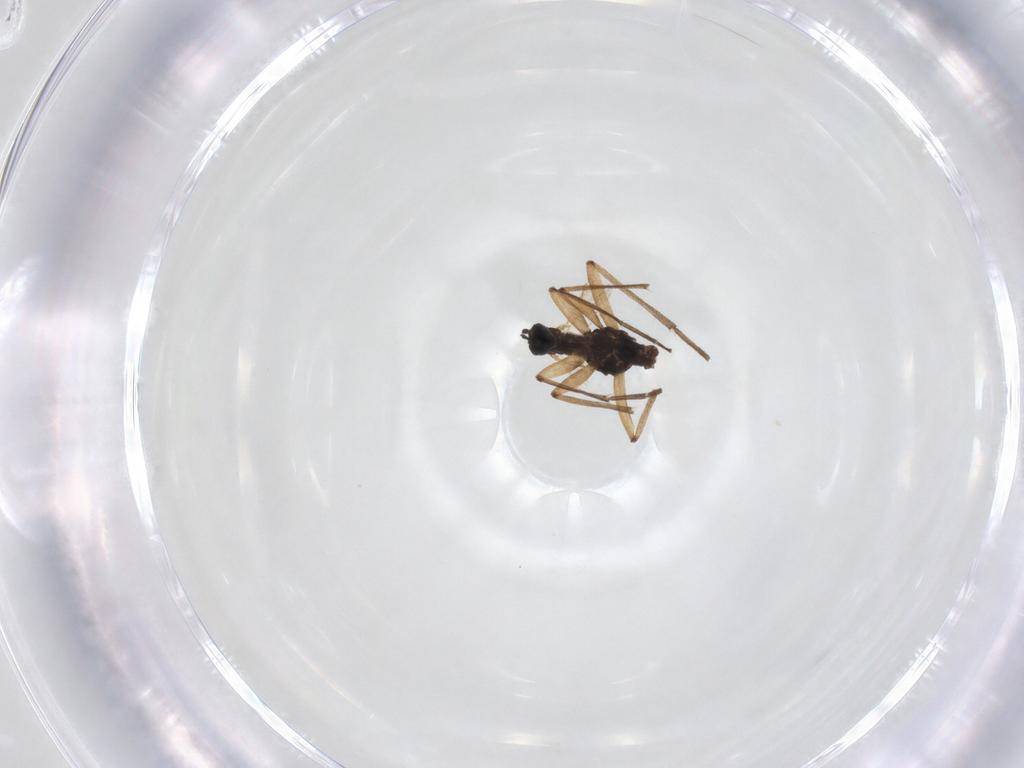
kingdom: Animalia
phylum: Arthropoda
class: Insecta
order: Diptera
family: Sciaridae
